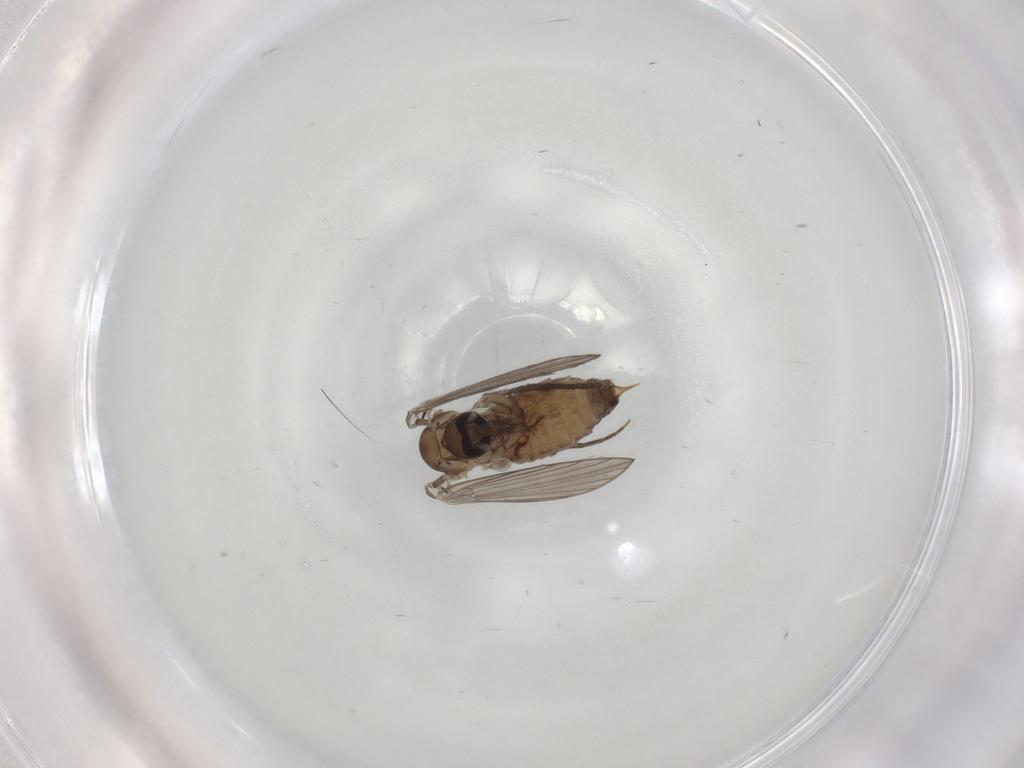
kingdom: Animalia
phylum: Arthropoda
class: Insecta
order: Diptera
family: Psychodidae
